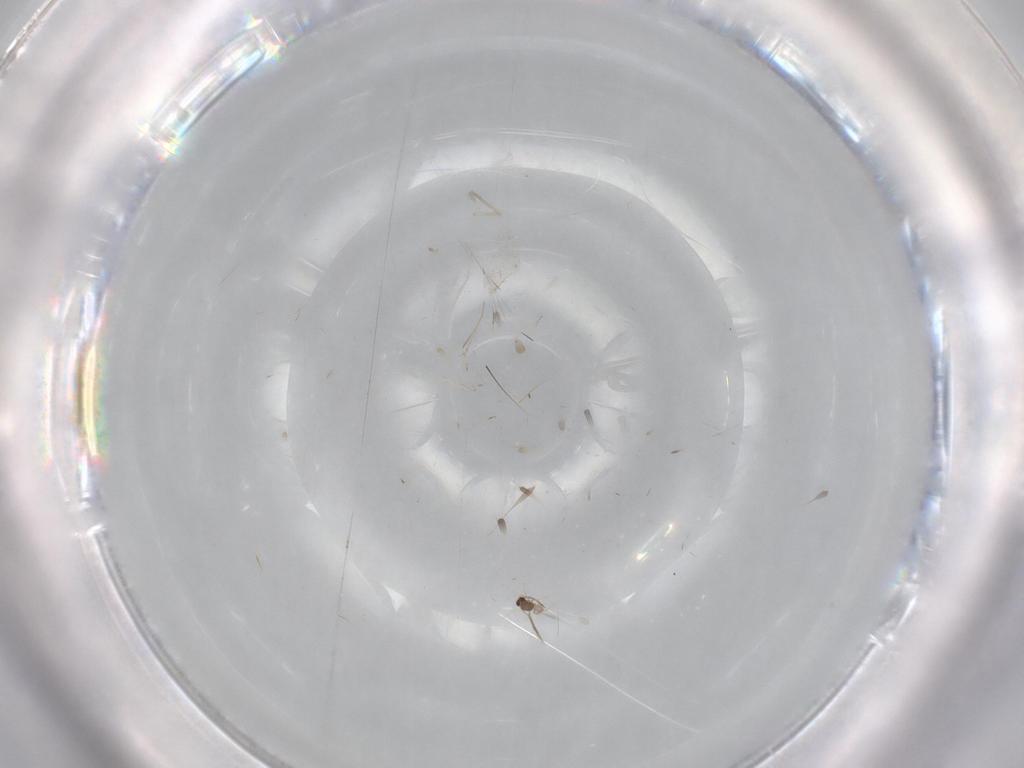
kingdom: Animalia
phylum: Arthropoda
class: Insecta
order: Diptera
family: Cecidomyiidae
